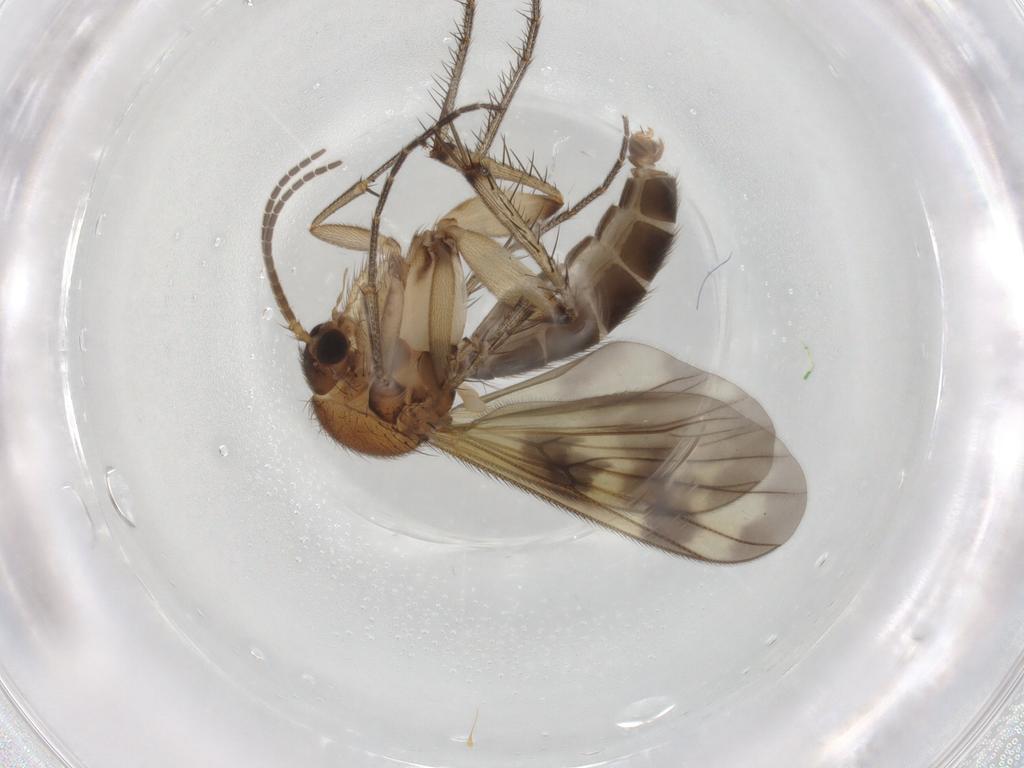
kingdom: Animalia
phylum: Arthropoda
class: Insecta
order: Diptera
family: Mycetophilidae
